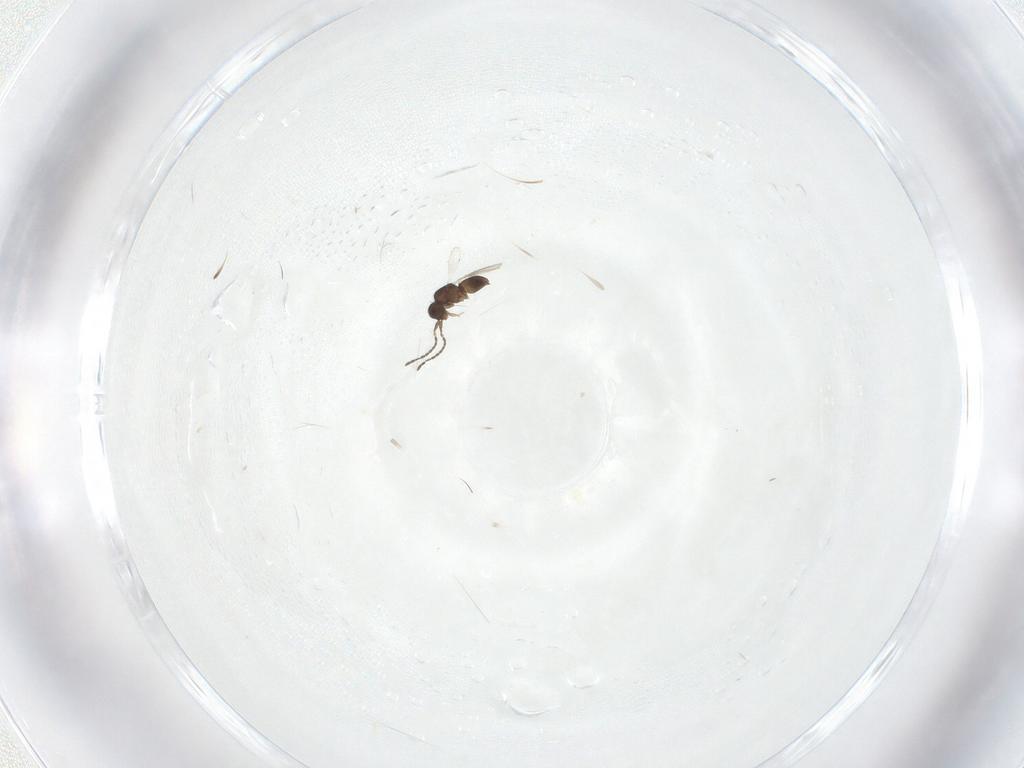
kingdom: Animalia
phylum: Arthropoda
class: Insecta
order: Hymenoptera
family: Ceraphronidae
